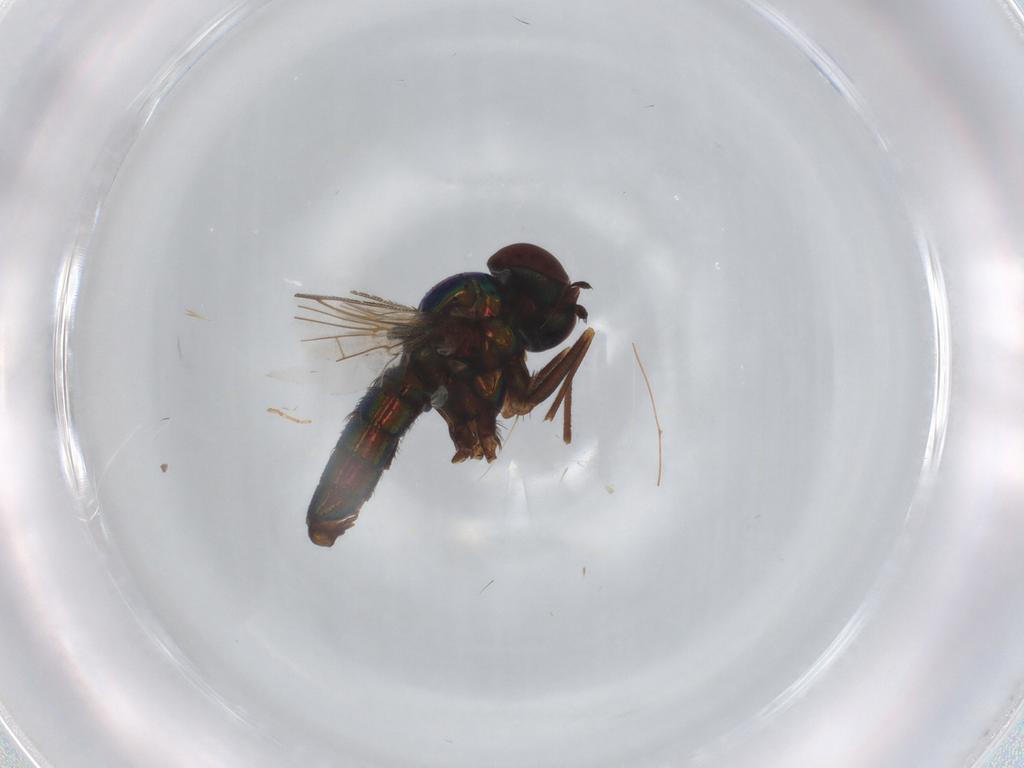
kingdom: Animalia
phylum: Arthropoda
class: Insecta
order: Diptera
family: Dolichopodidae
